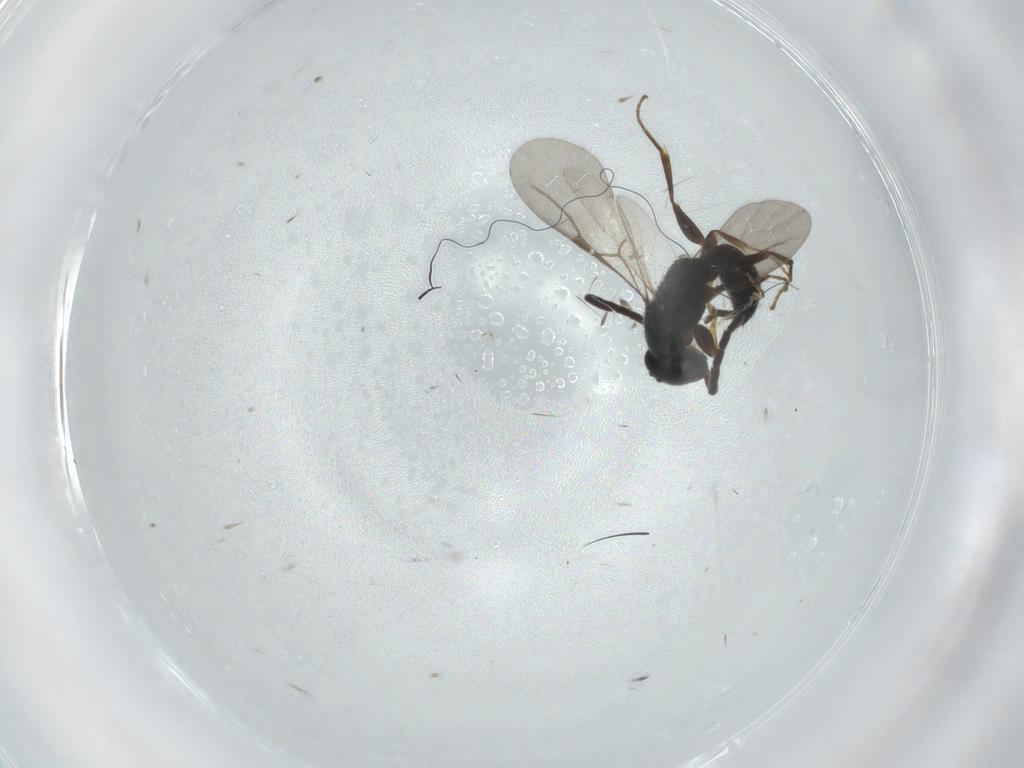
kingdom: Animalia
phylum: Arthropoda
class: Insecta
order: Hymenoptera
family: Bethylidae
